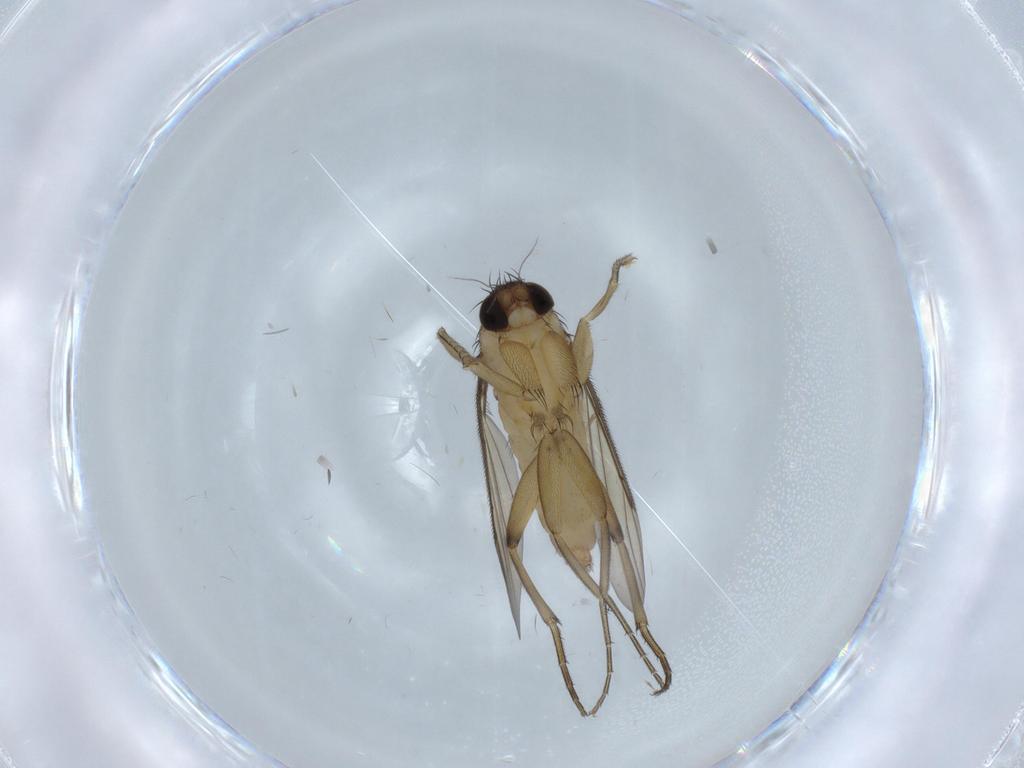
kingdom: Animalia
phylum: Arthropoda
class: Insecta
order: Diptera
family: Phoridae
